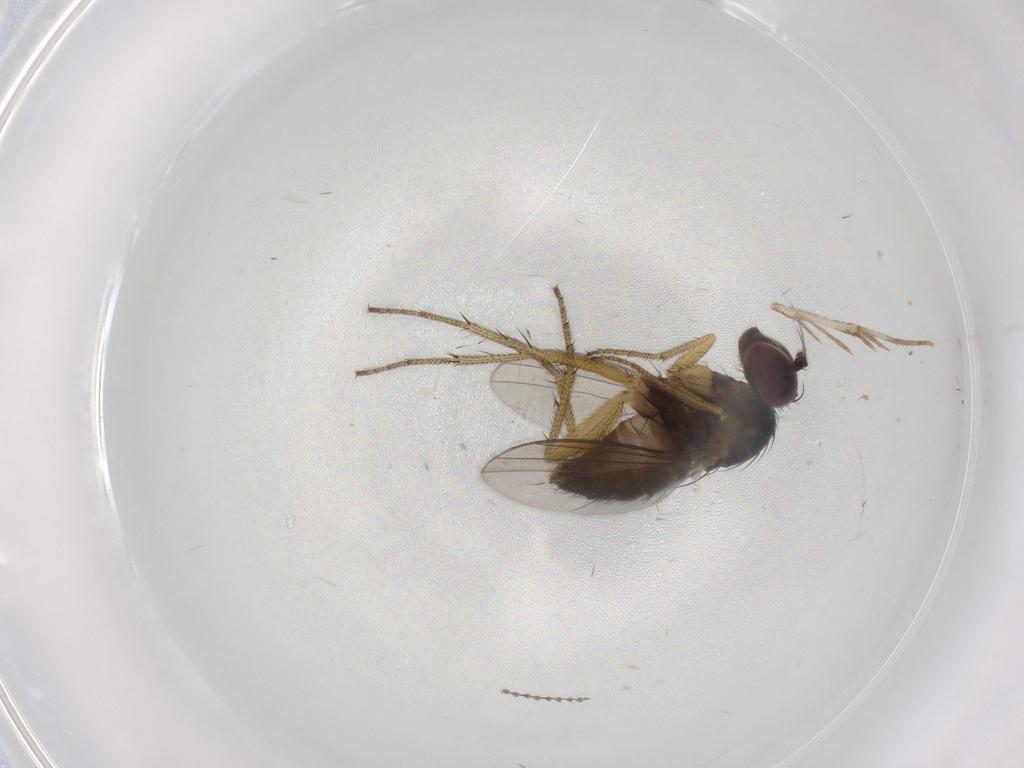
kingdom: Animalia
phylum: Arthropoda
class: Insecta
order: Diptera
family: Dolichopodidae
